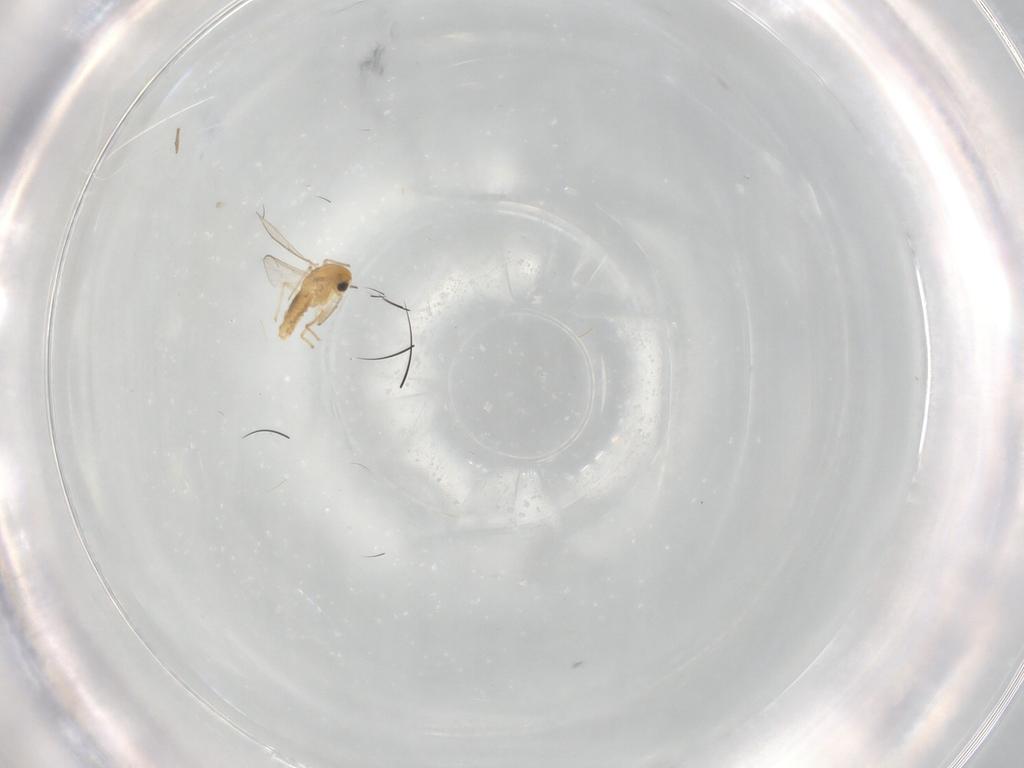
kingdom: Animalia
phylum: Arthropoda
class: Insecta
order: Diptera
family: Chironomidae
